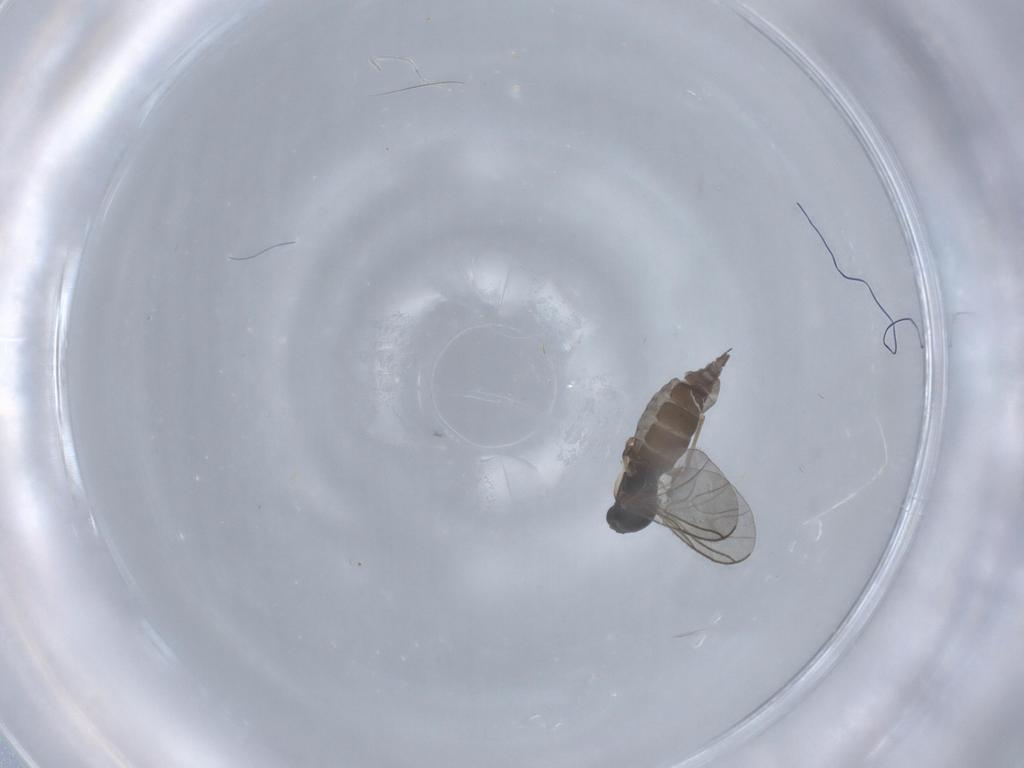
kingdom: Animalia
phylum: Arthropoda
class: Insecta
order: Diptera
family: Sciaridae
